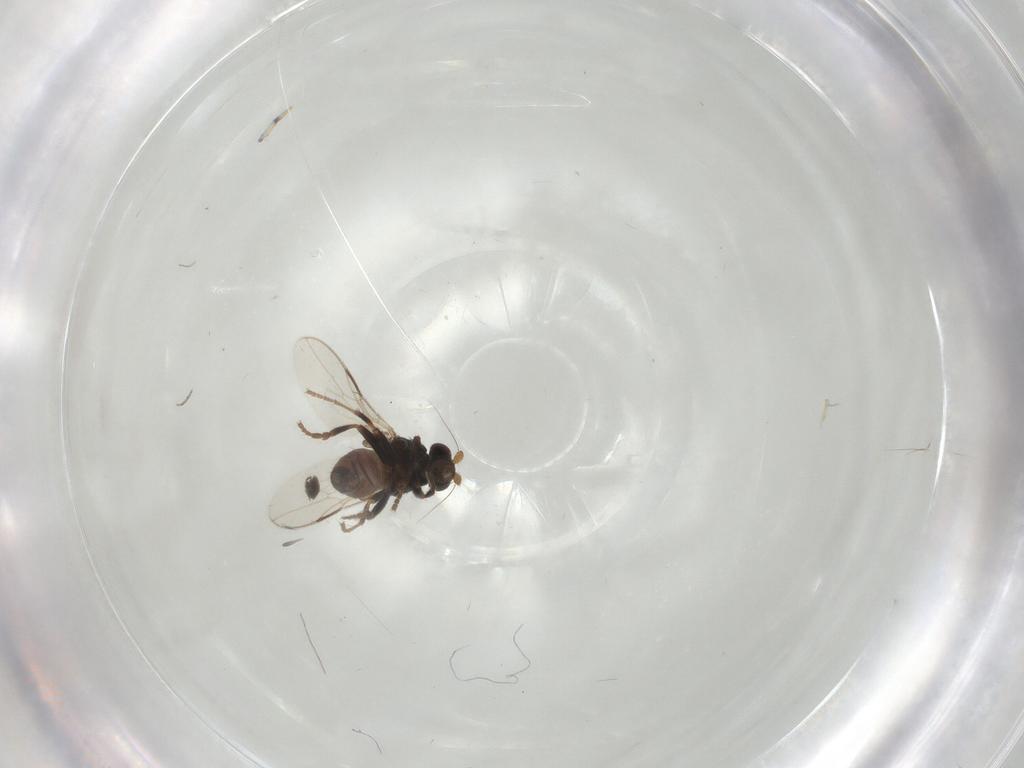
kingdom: Animalia
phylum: Arthropoda
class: Insecta
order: Diptera
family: Sphaeroceridae
